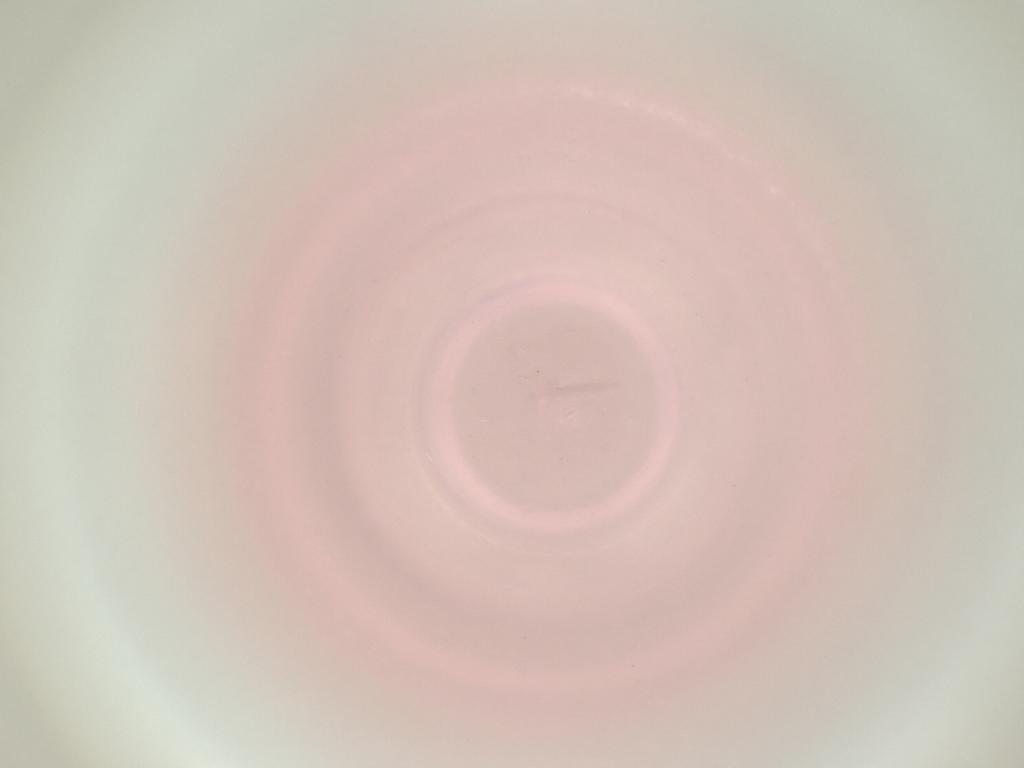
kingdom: Animalia
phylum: Arthropoda
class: Insecta
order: Diptera
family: Cecidomyiidae
